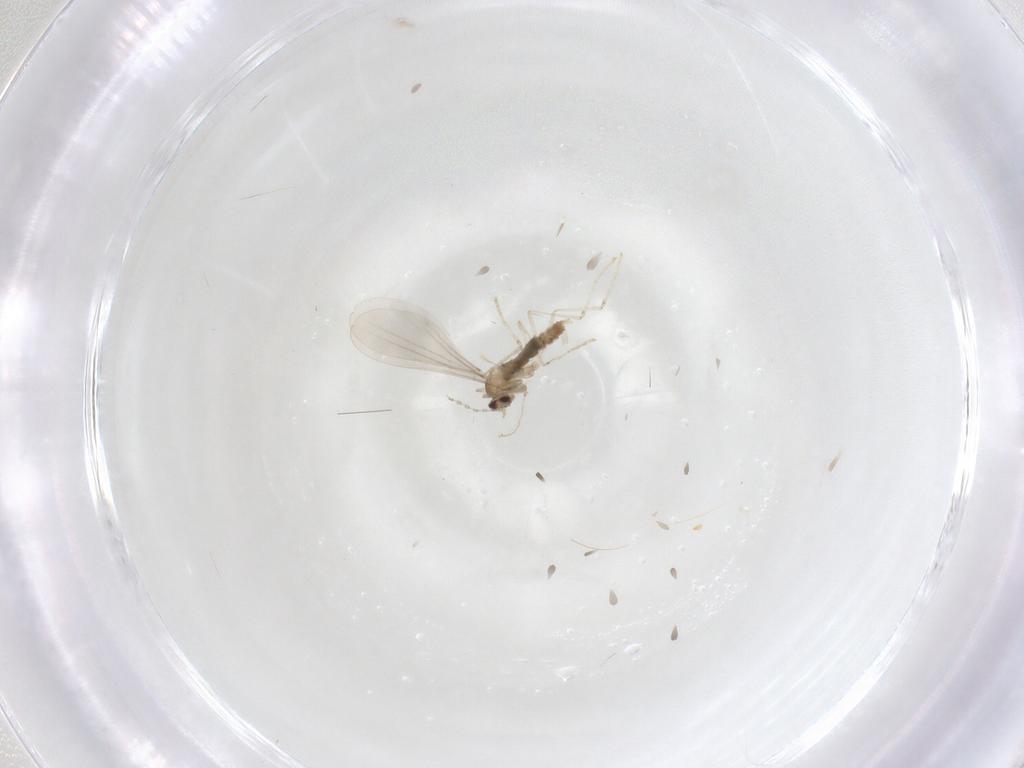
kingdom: Animalia
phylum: Arthropoda
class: Insecta
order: Diptera
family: Cecidomyiidae
